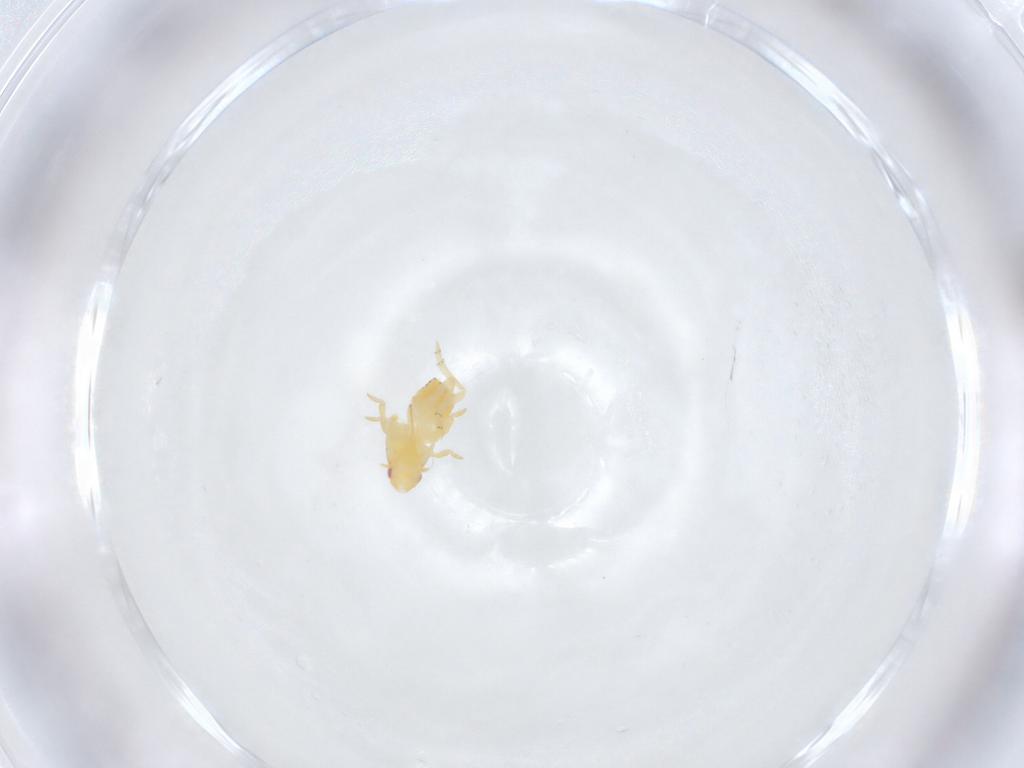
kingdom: Animalia
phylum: Arthropoda
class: Insecta
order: Hemiptera
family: Flatidae
